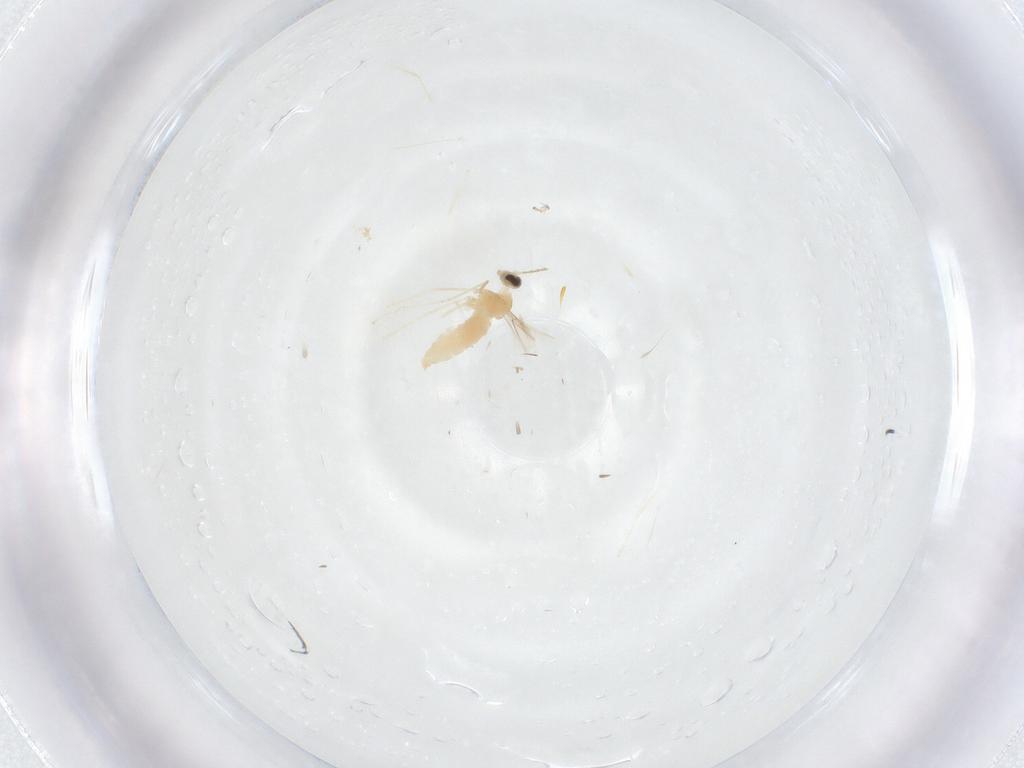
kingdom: Animalia
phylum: Arthropoda
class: Insecta
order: Diptera
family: Cecidomyiidae
